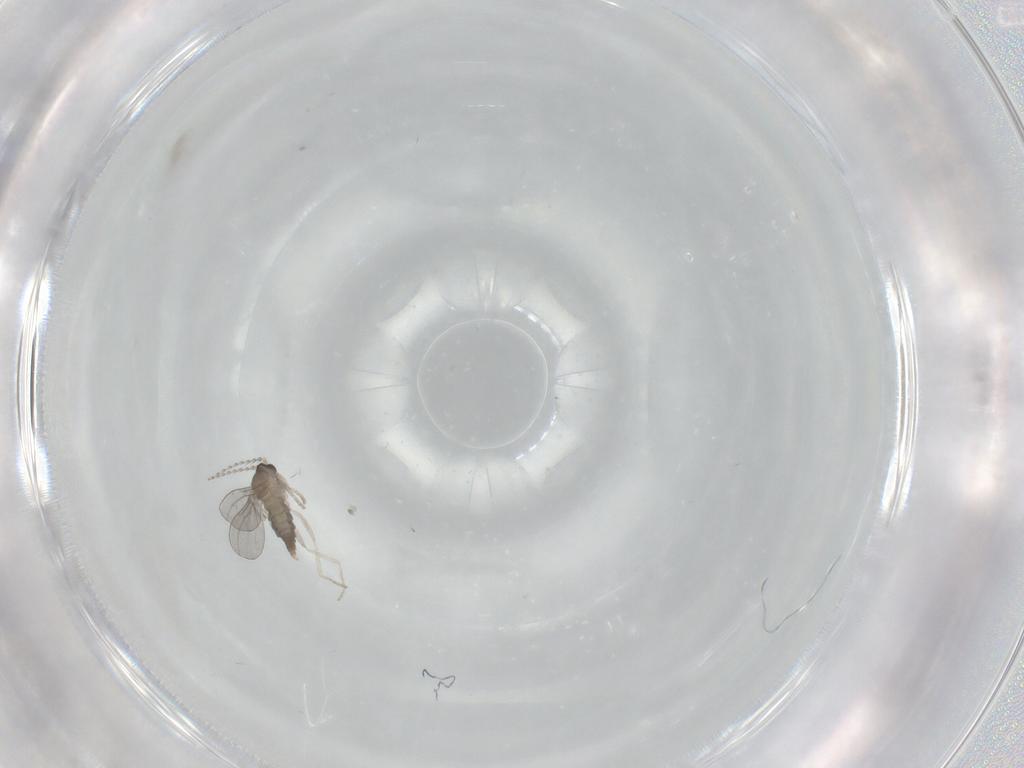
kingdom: Animalia
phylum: Arthropoda
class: Insecta
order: Diptera
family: Cecidomyiidae
